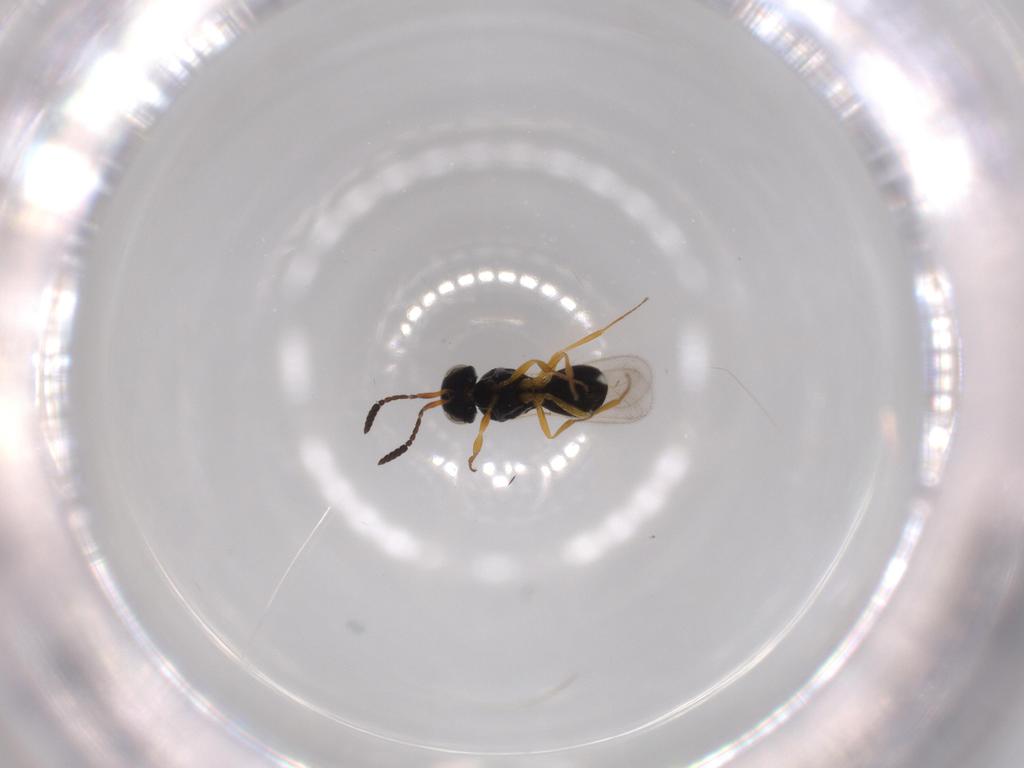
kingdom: Animalia
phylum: Arthropoda
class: Insecta
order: Hymenoptera
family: Scelionidae
